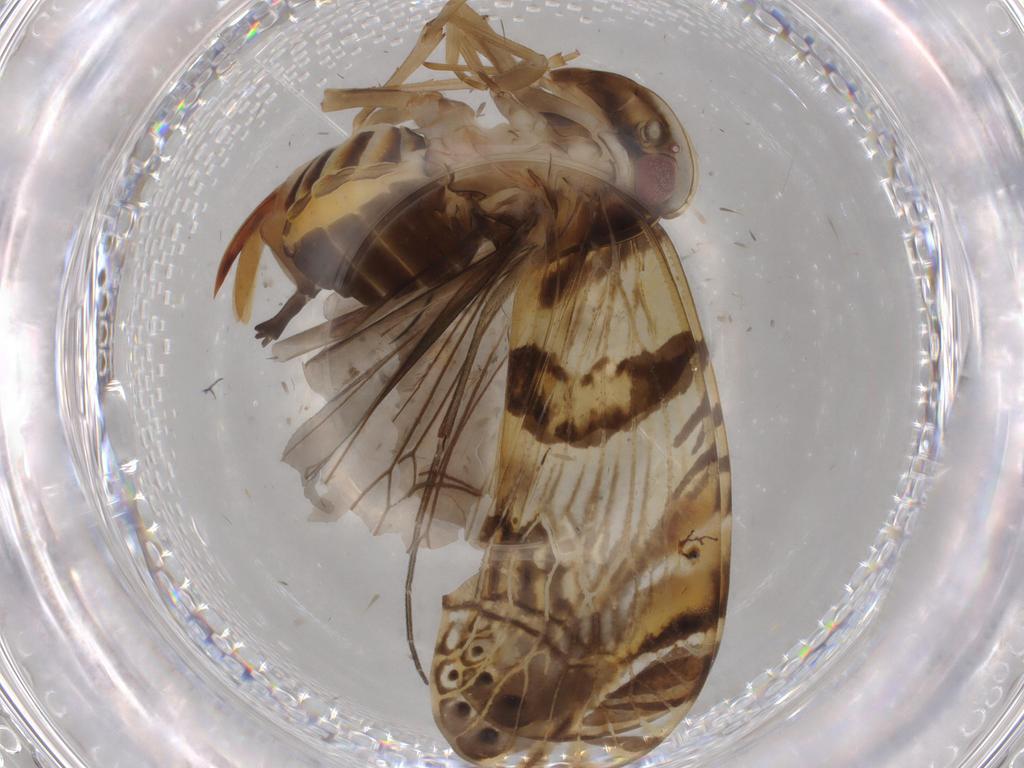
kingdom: Animalia
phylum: Arthropoda
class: Insecta
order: Hemiptera
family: Cixiidae
